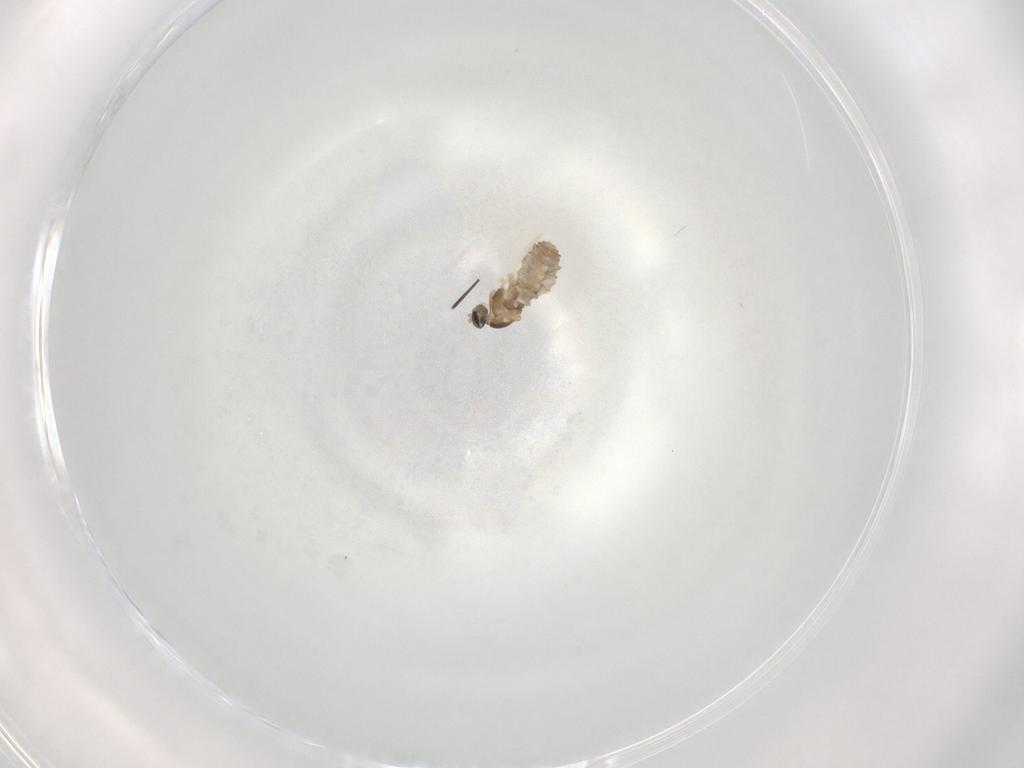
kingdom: Animalia
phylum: Arthropoda
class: Insecta
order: Diptera
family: Cecidomyiidae
